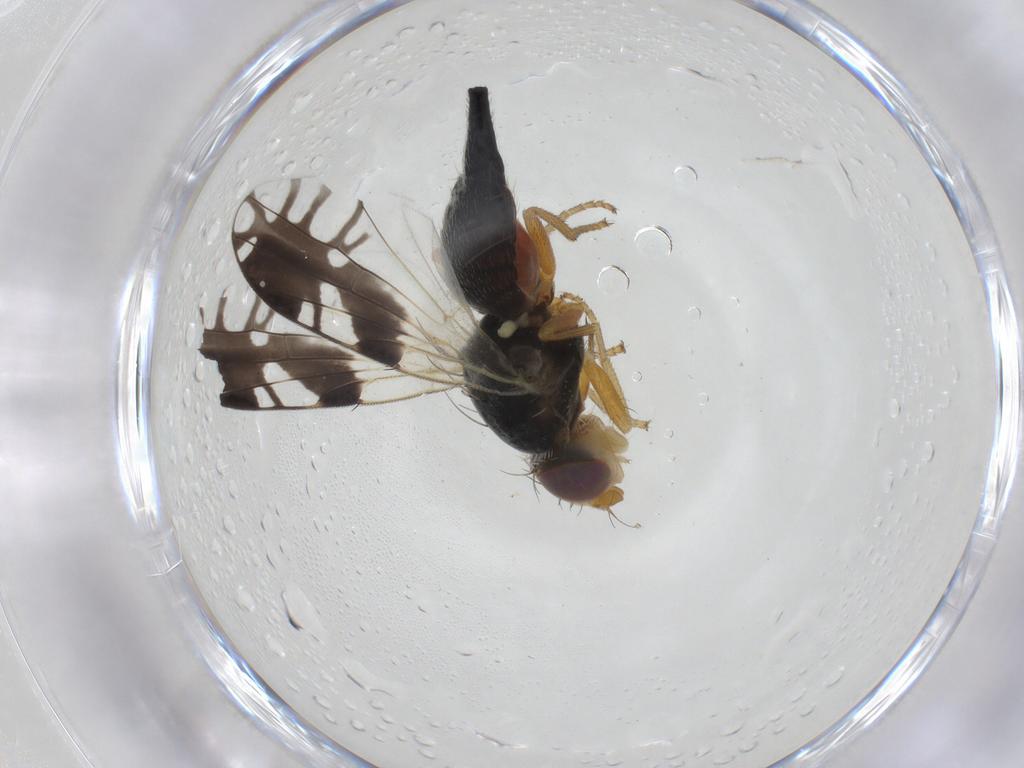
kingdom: Animalia
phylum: Arthropoda
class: Insecta
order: Diptera
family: Tephritidae
